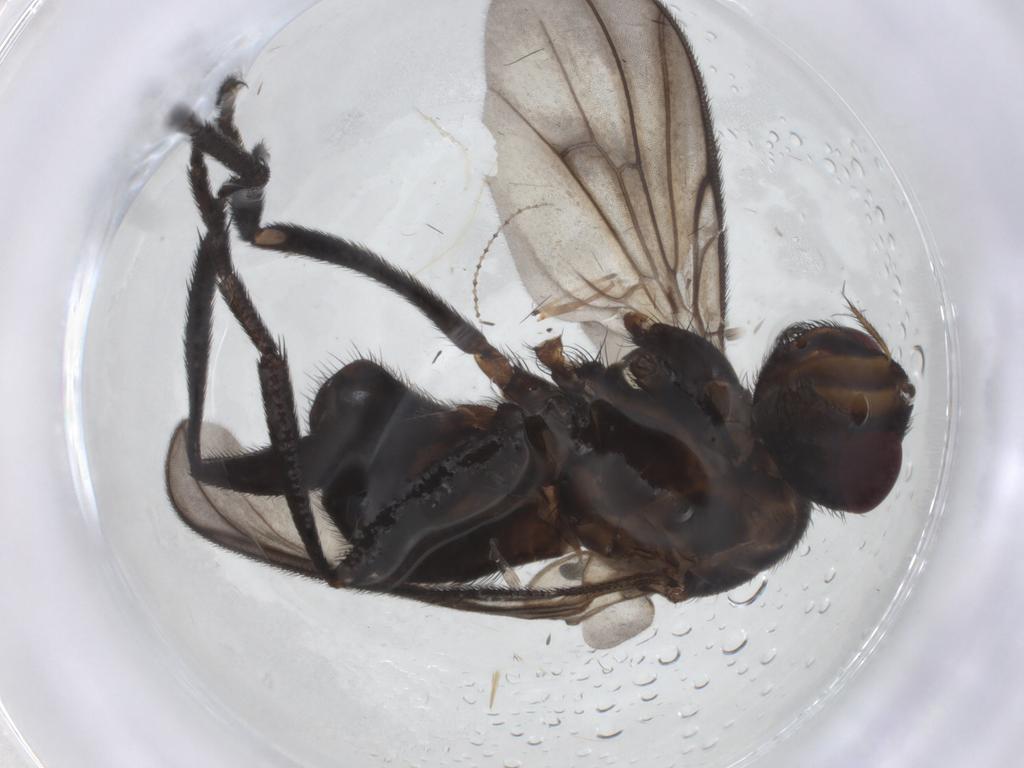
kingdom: Animalia
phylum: Arthropoda
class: Insecta
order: Diptera
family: Calliphoridae
